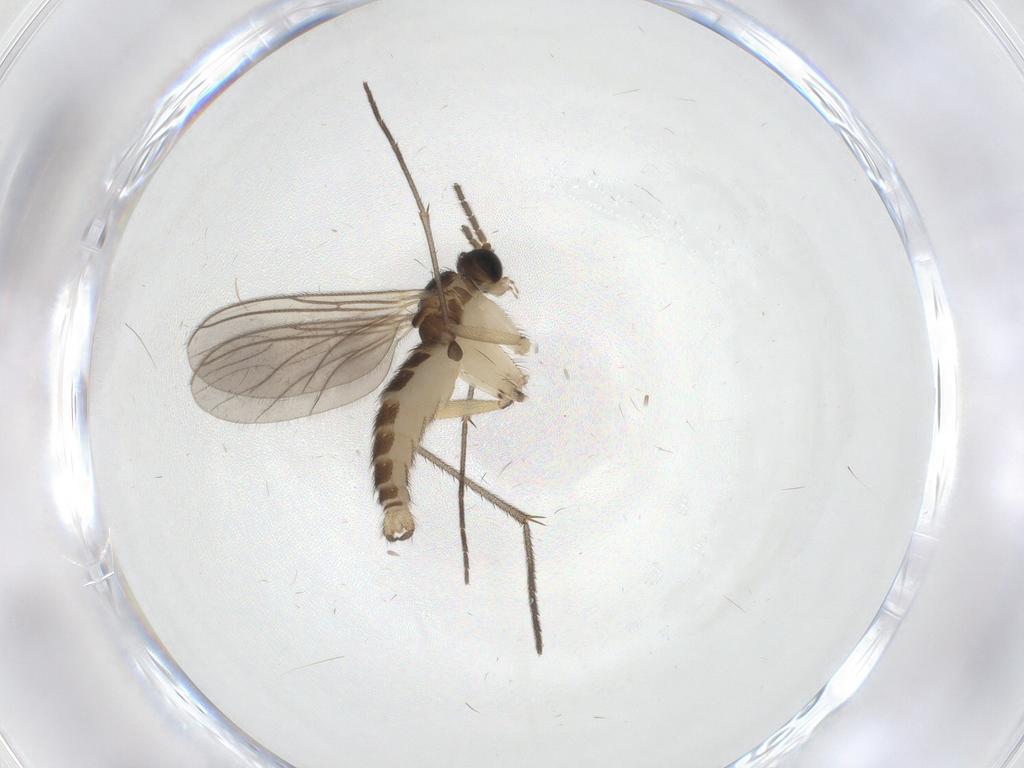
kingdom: Animalia
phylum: Arthropoda
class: Insecta
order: Diptera
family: Sciaridae
